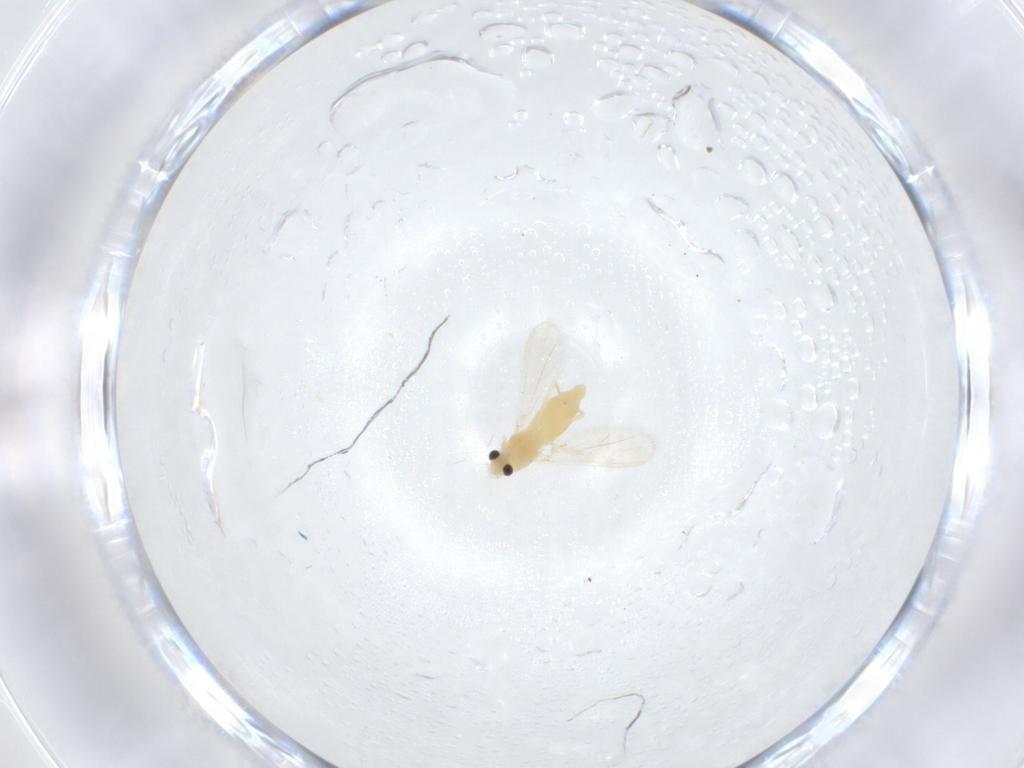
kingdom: Animalia
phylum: Arthropoda
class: Insecta
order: Diptera
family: Chironomidae
